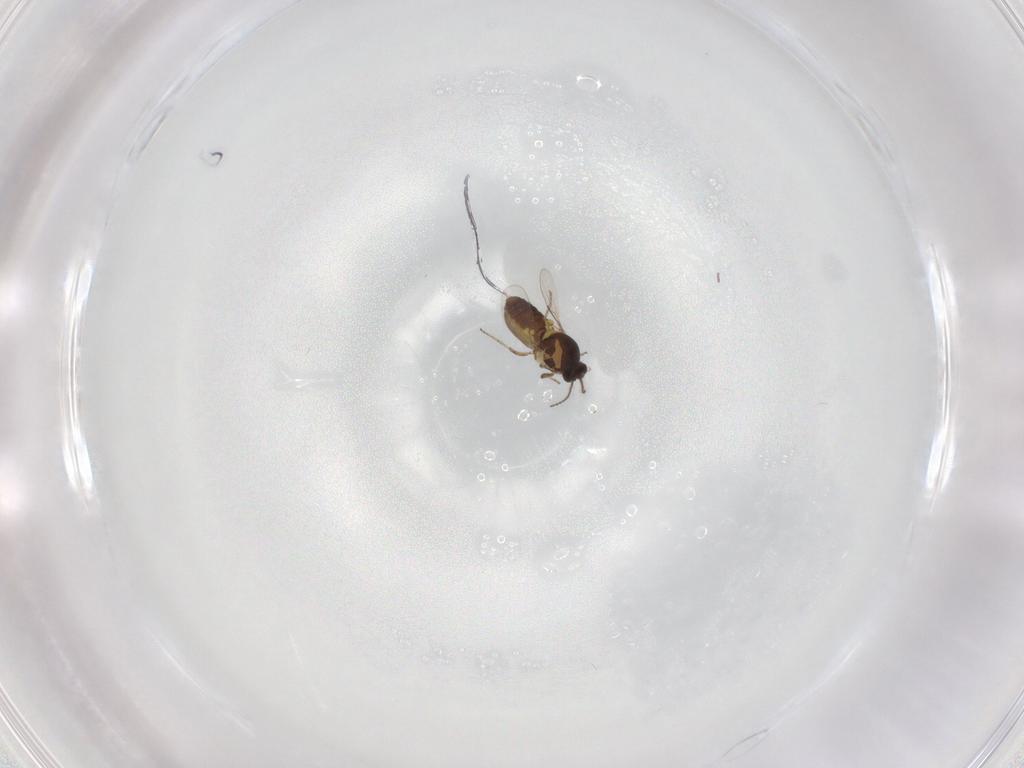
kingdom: Animalia
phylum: Arthropoda
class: Insecta
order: Diptera
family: Ceratopogonidae
